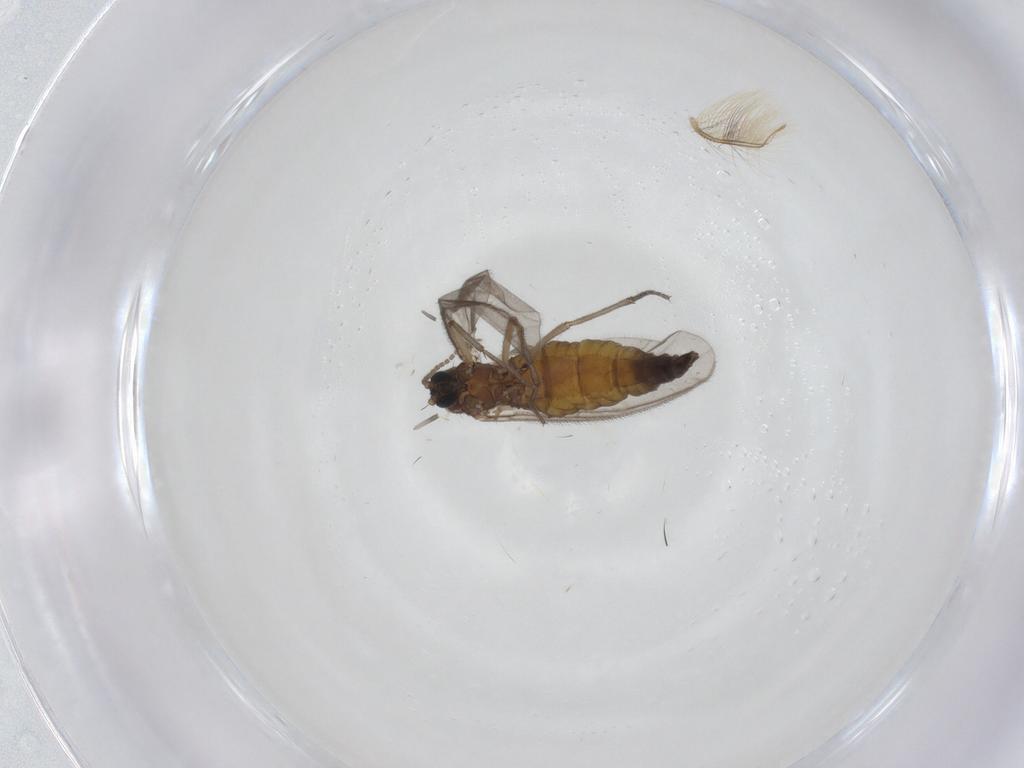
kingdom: Animalia
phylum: Arthropoda
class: Insecta
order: Diptera
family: Sciaridae
